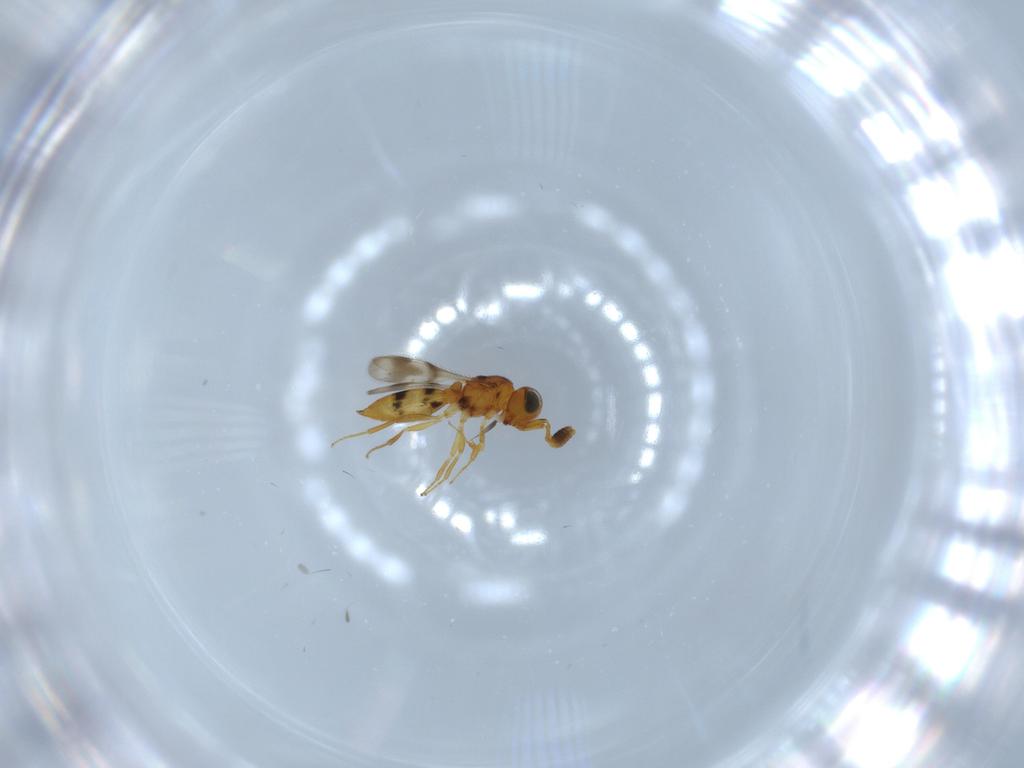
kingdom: Animalia
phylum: Arthropoda
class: Insecta
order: Hymenoptera
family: Scelionidae
